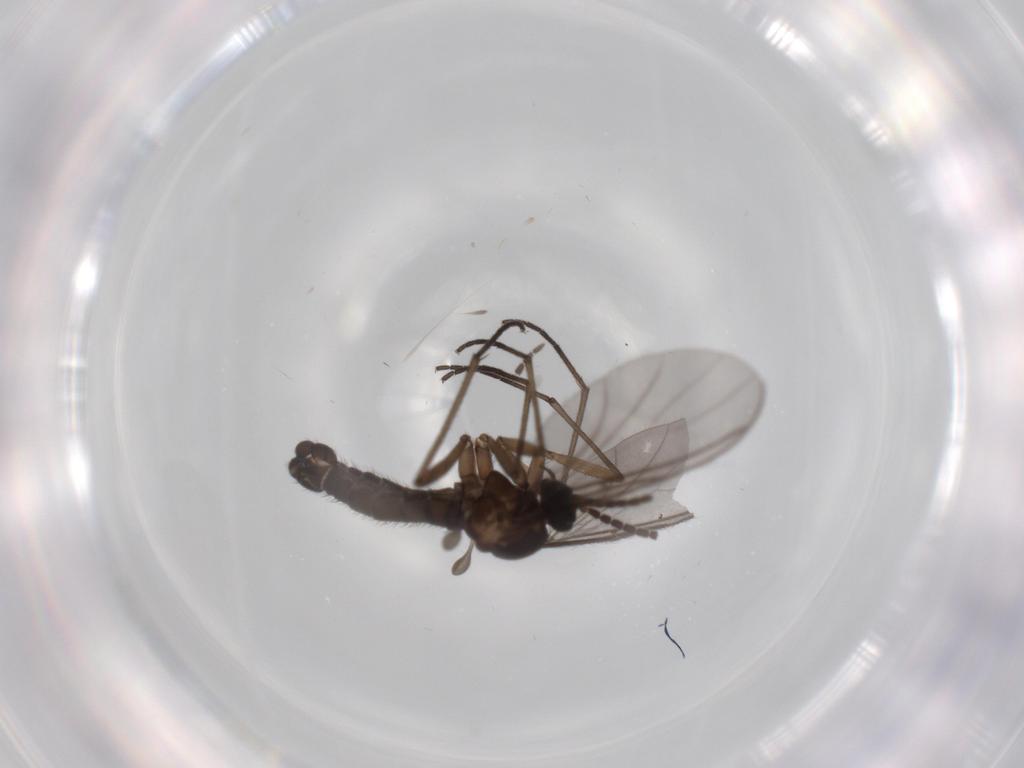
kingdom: Animalia
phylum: Arthropoda
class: Insecta
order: Diptera
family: Sciaridae
